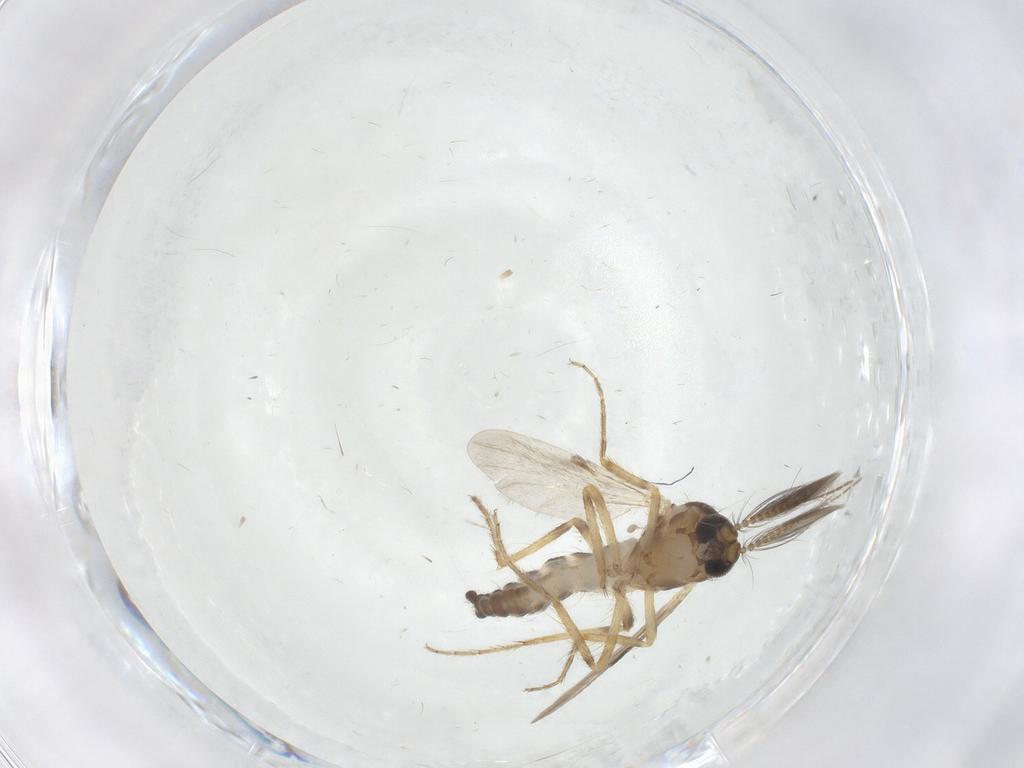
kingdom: Animalia
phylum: Arthropoda
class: Insecta
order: Diptera
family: Ceratopogonidae
